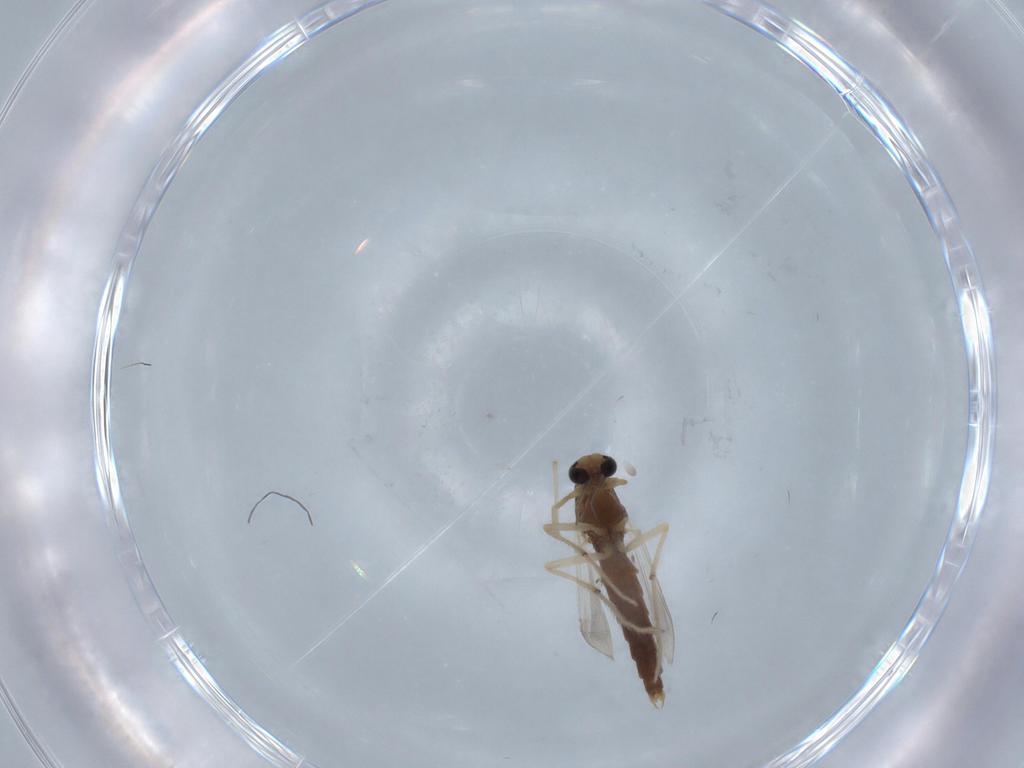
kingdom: Animalia
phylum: Arthropoda
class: Insecta
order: Diptera
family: Chironomidae
